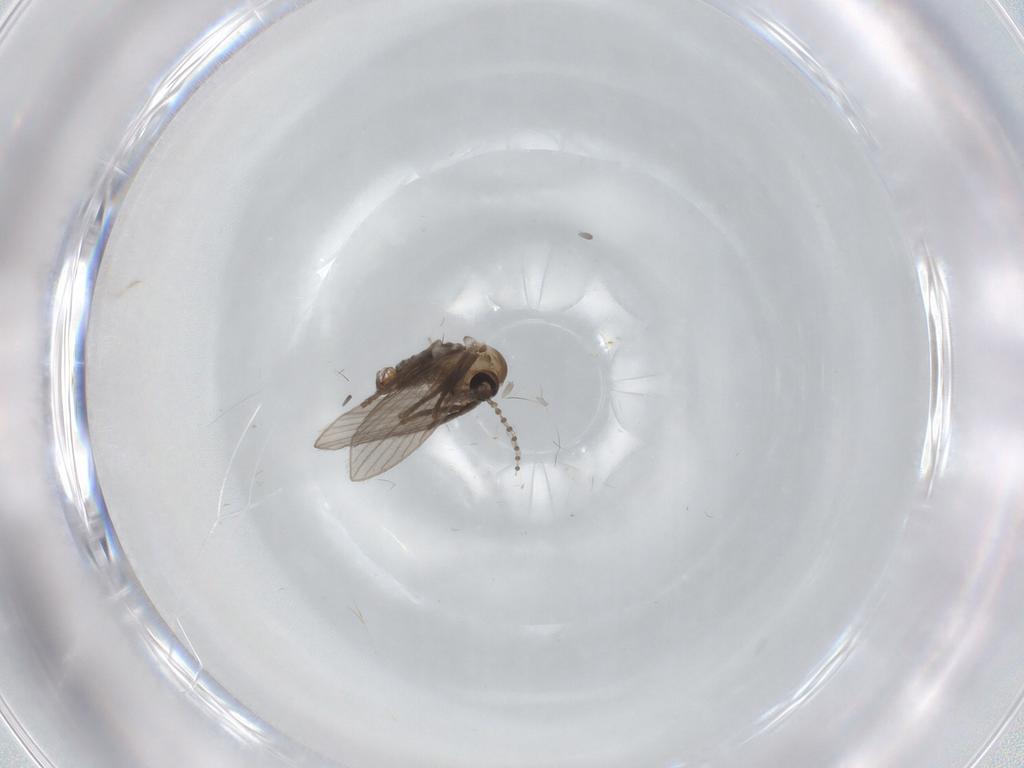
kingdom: Animalia
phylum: Arthropoda
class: Insecta
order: Diptera
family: Psychodidae
